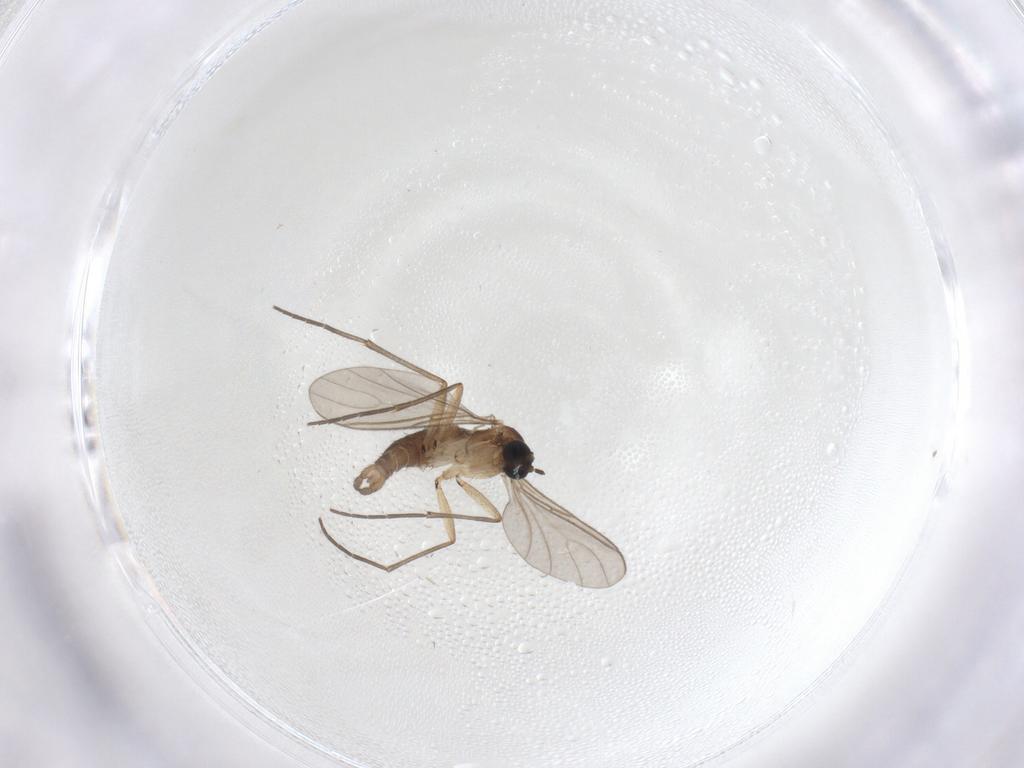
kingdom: Animalia
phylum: Arthropoda
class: Insecta
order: Diptera
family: Sciaridae
